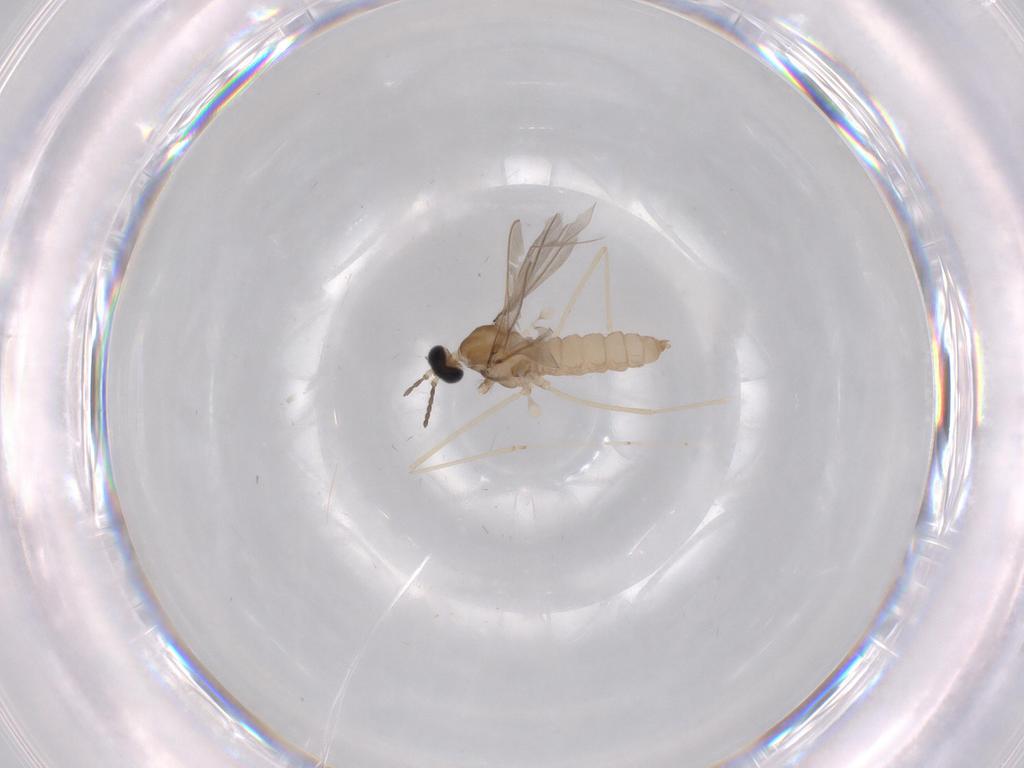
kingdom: Animalia
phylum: Arthropoda
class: Insecta
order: Diptera
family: Cecidomyiidae
